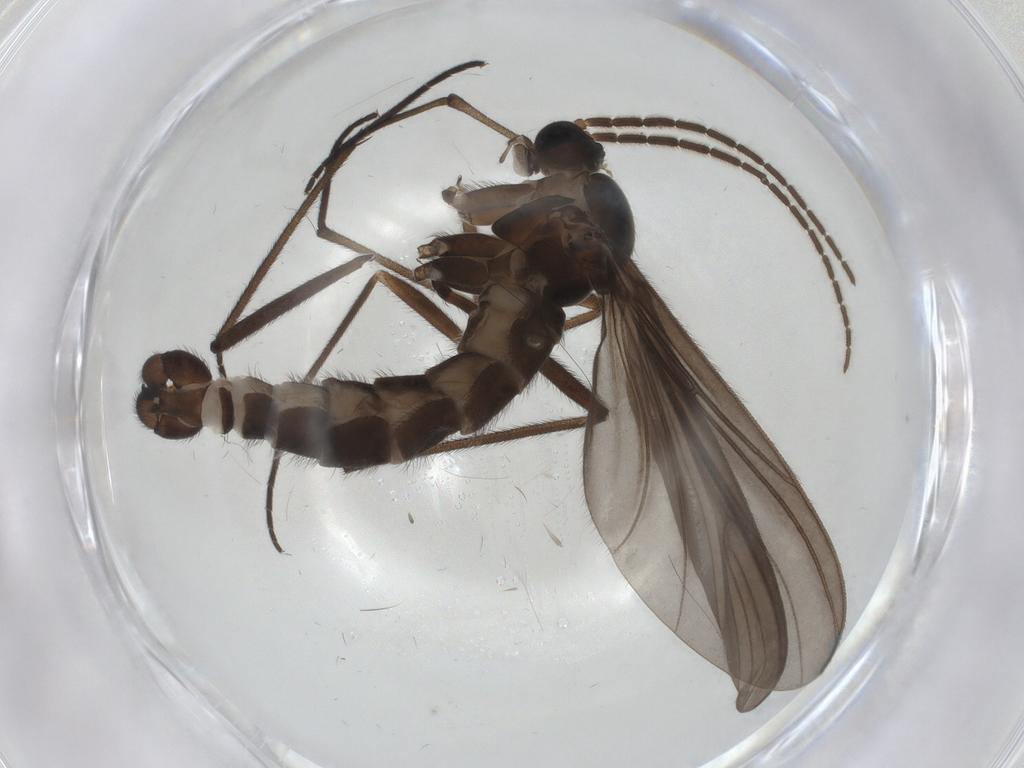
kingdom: Animalia
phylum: Arthropoda
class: Insecta
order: Diptera
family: Sciaridae
